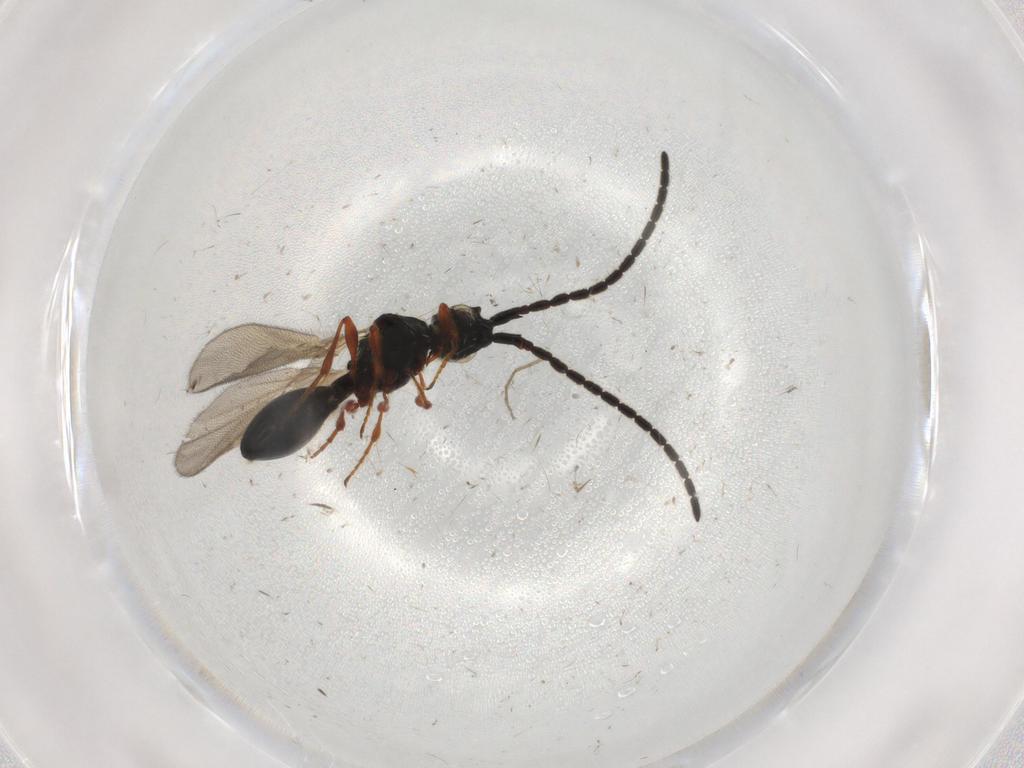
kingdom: Animalia
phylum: Arthropoda
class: Insecta
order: Hymenoptera
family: Diapriidae
